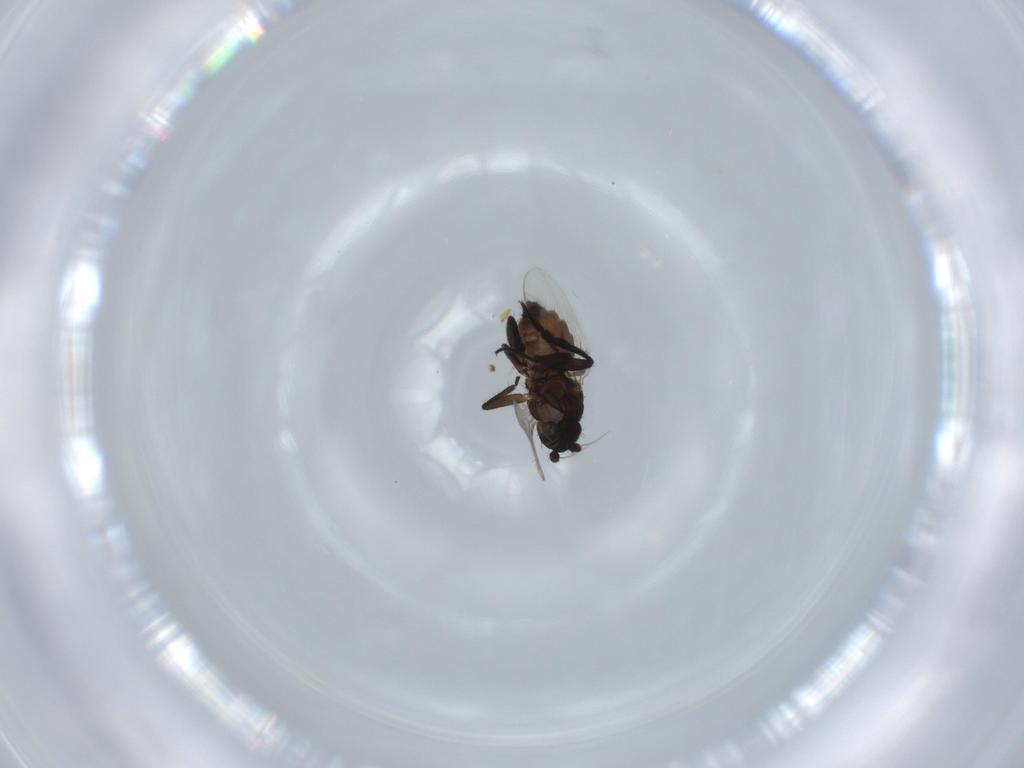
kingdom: Animalia
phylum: Arthropoda
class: Insecta
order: Diptera
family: Sphaeroceridae
